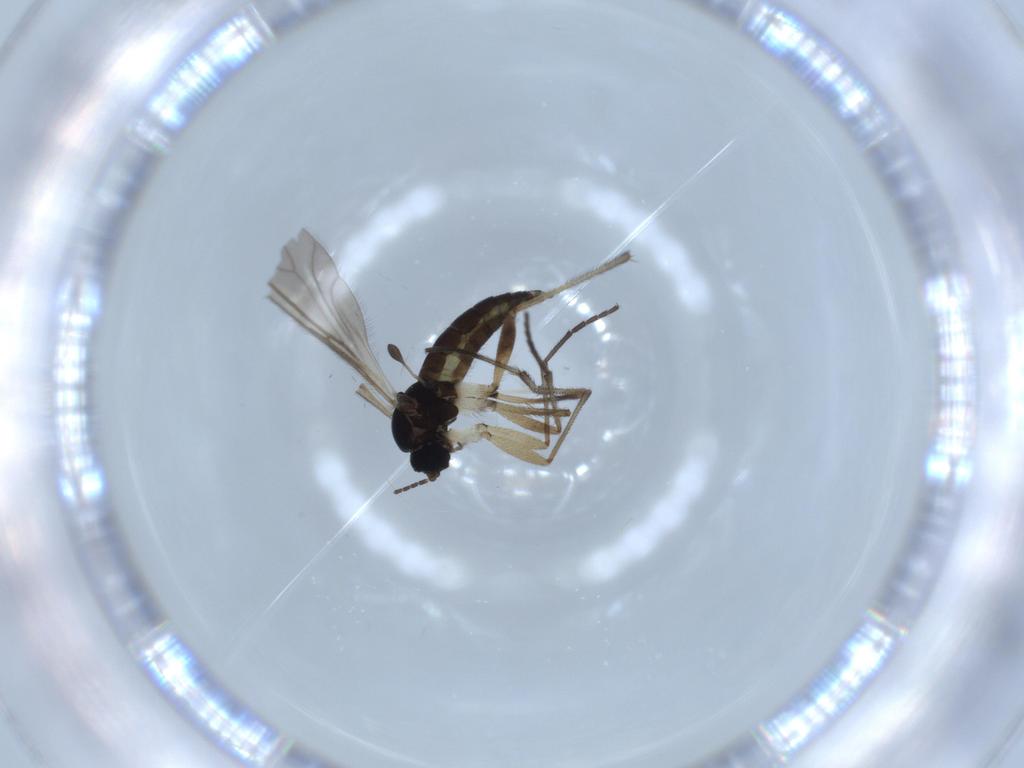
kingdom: Animalia
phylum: Arthropoda
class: Insecta
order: Diptera
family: Sciaridae
